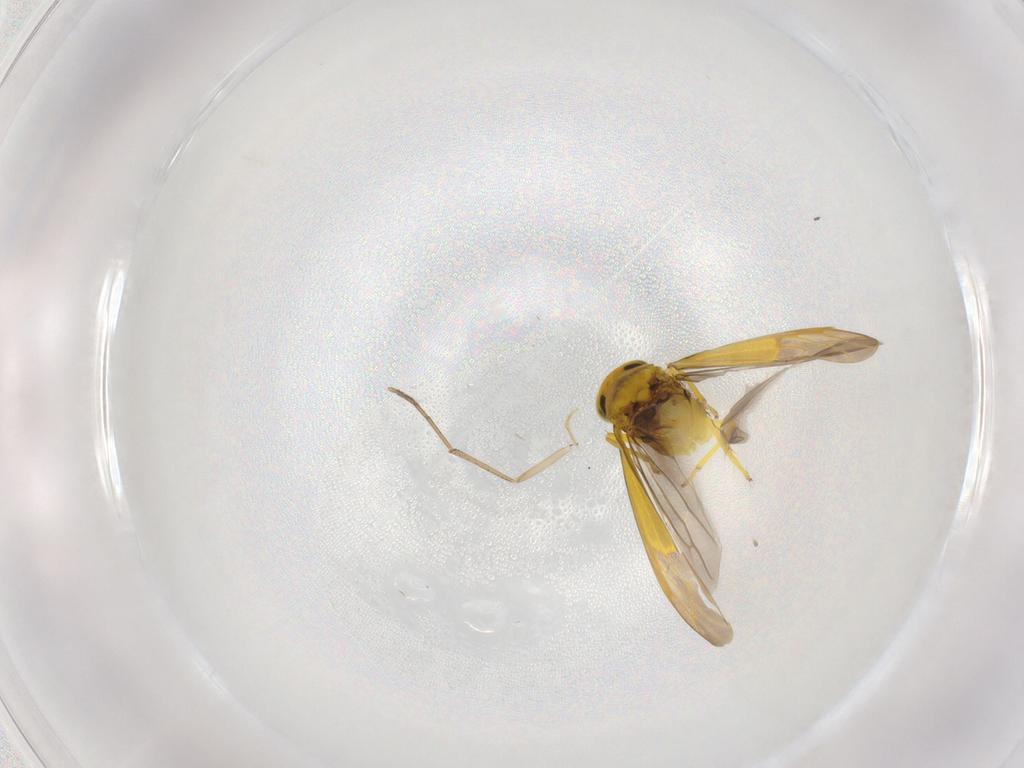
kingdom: Animalia
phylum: Arthropoda
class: Insecta
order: Hemiptera
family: Cicadellidae
